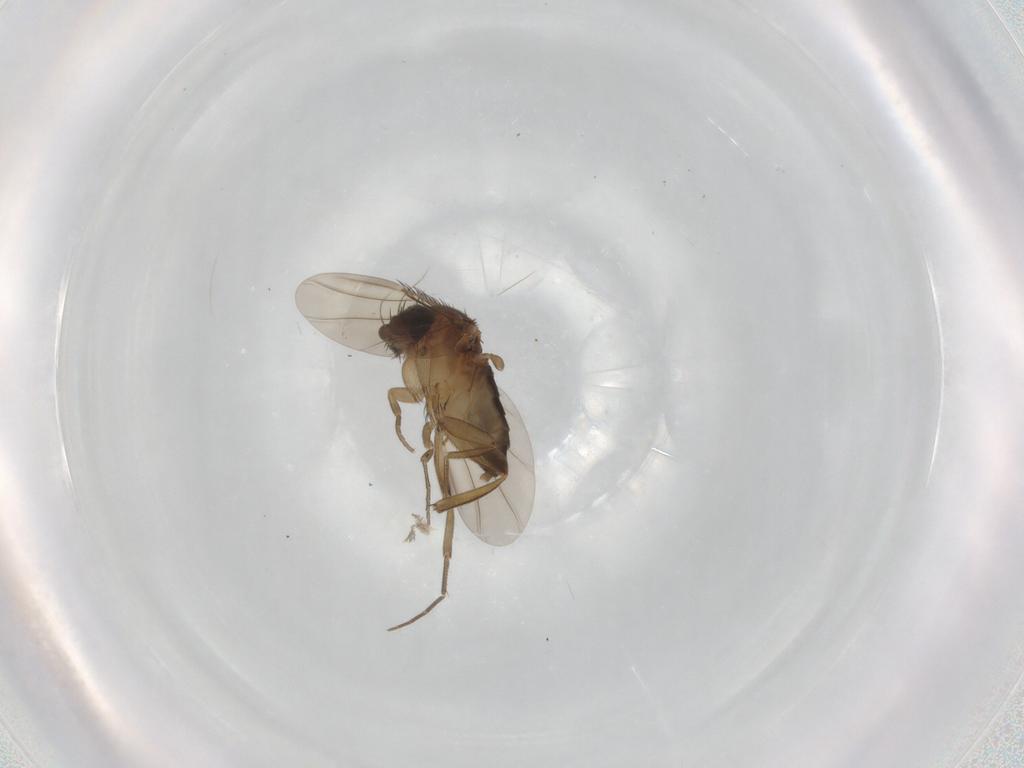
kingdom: Animalia
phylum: Arthropoda
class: Insecta
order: Diptera
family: Phoridae
